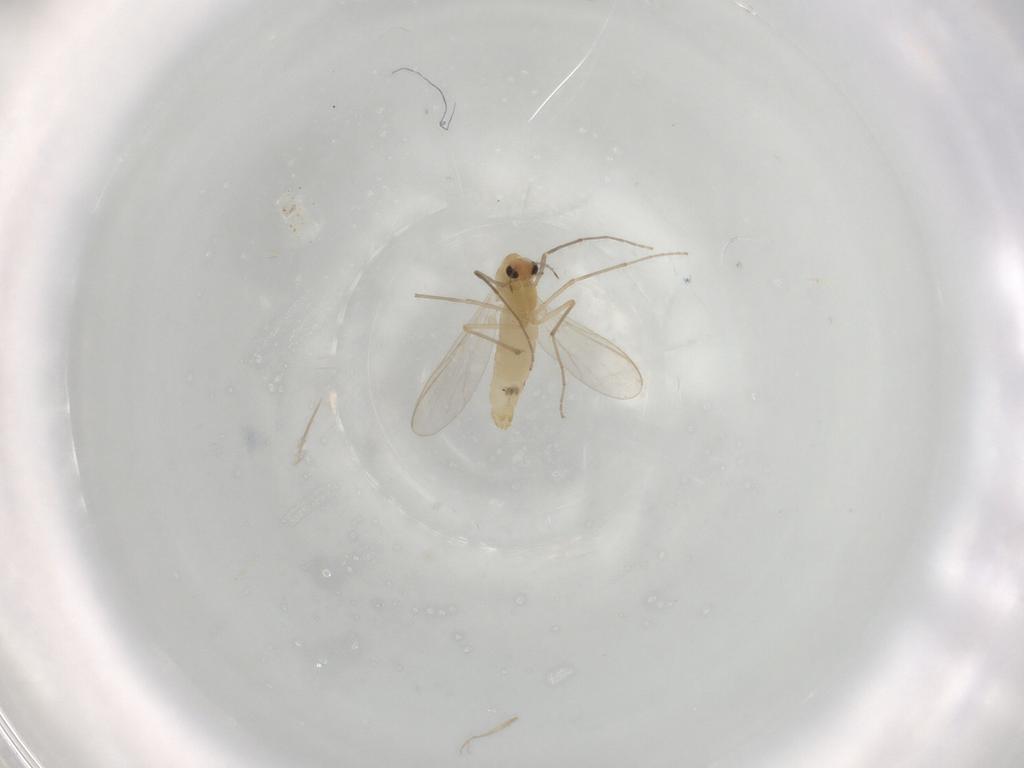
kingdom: Animalia
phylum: Arthropoda
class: Insecta
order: Diptera
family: Chironomidae
